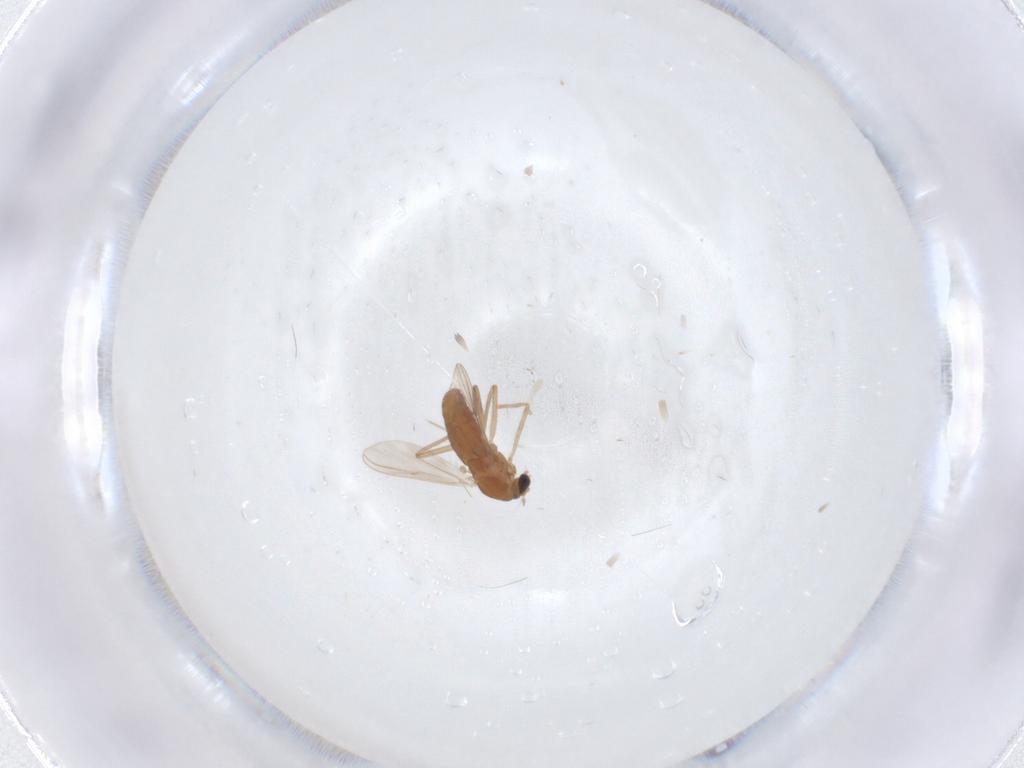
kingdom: Animalia
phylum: Arthropoda
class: Insecta
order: Diptera
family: Chironomidae
